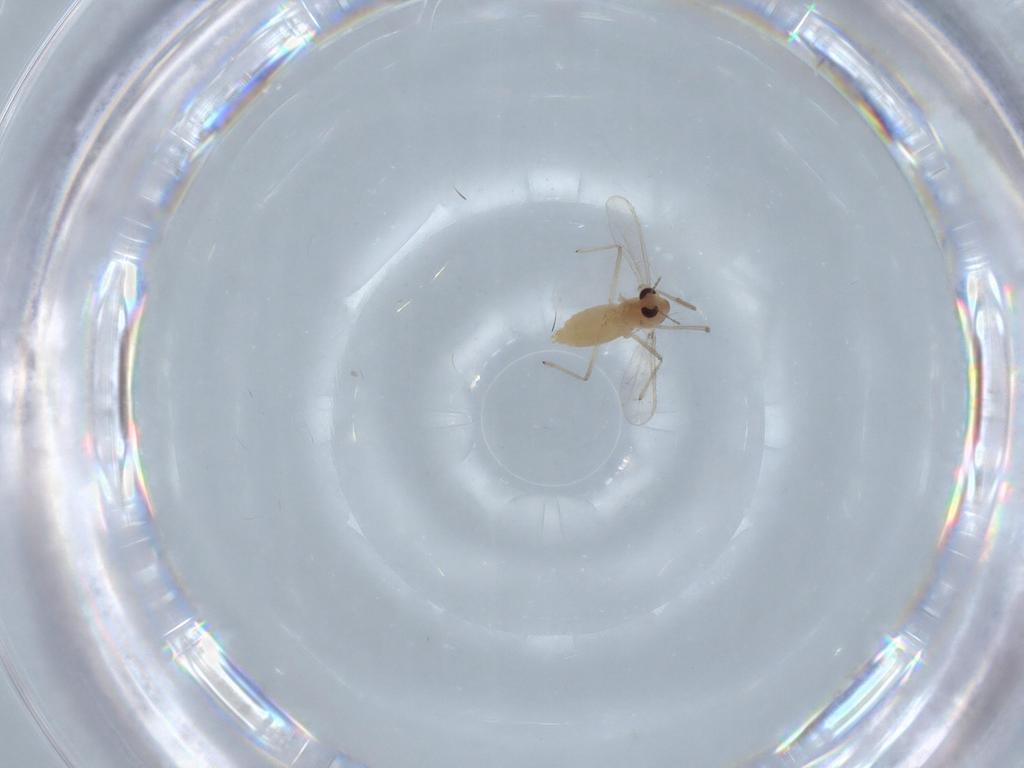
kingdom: Animalia
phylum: Arthropoda
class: Insecta
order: Diptera
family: Chironomidae
